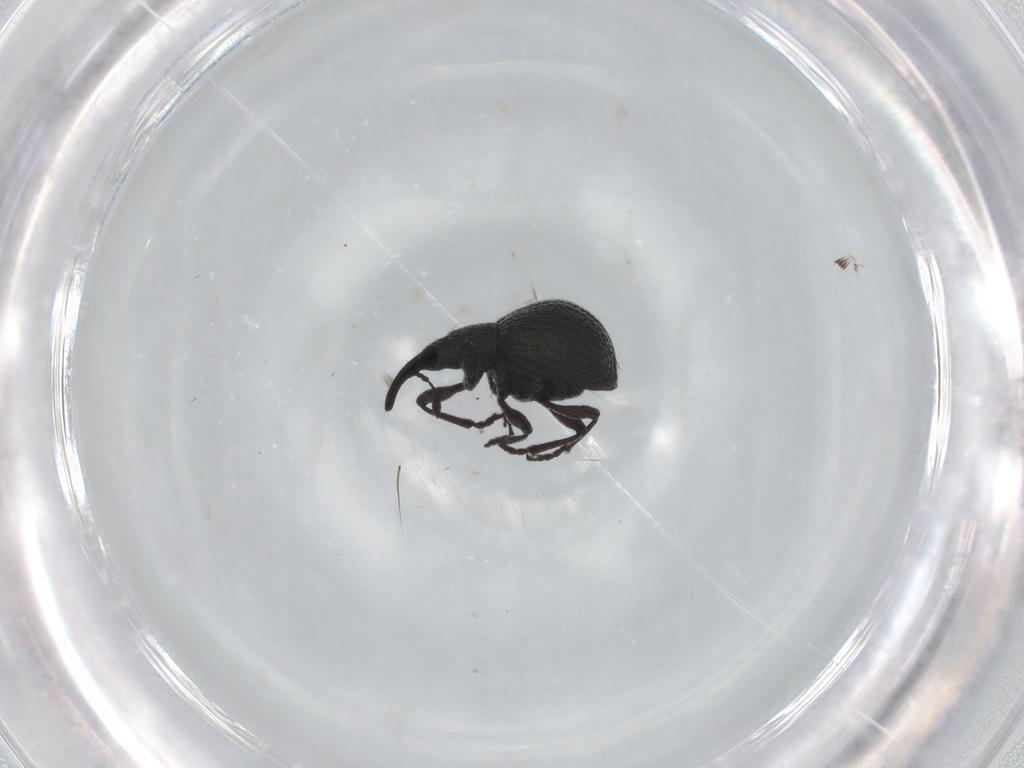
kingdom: Animalia
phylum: Arthropoda
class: Insecta
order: Coleoptera
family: Brentidae
